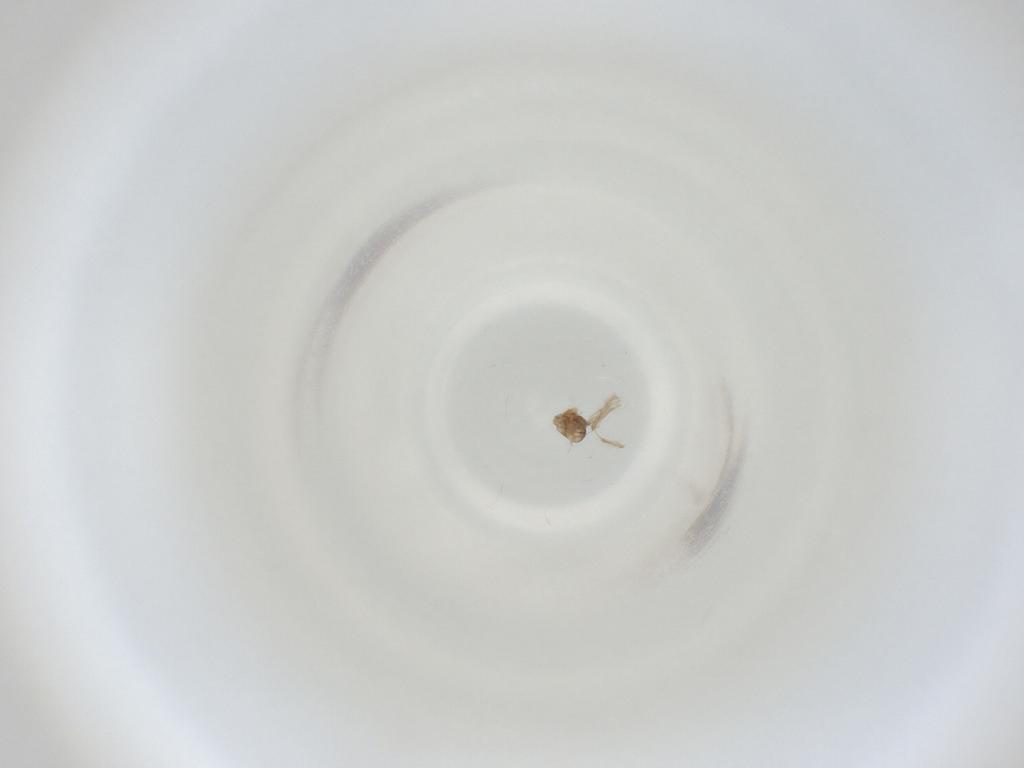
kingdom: Animalia
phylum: Arthropoda
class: Insecta
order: Diptera
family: Cecidomyiidae
